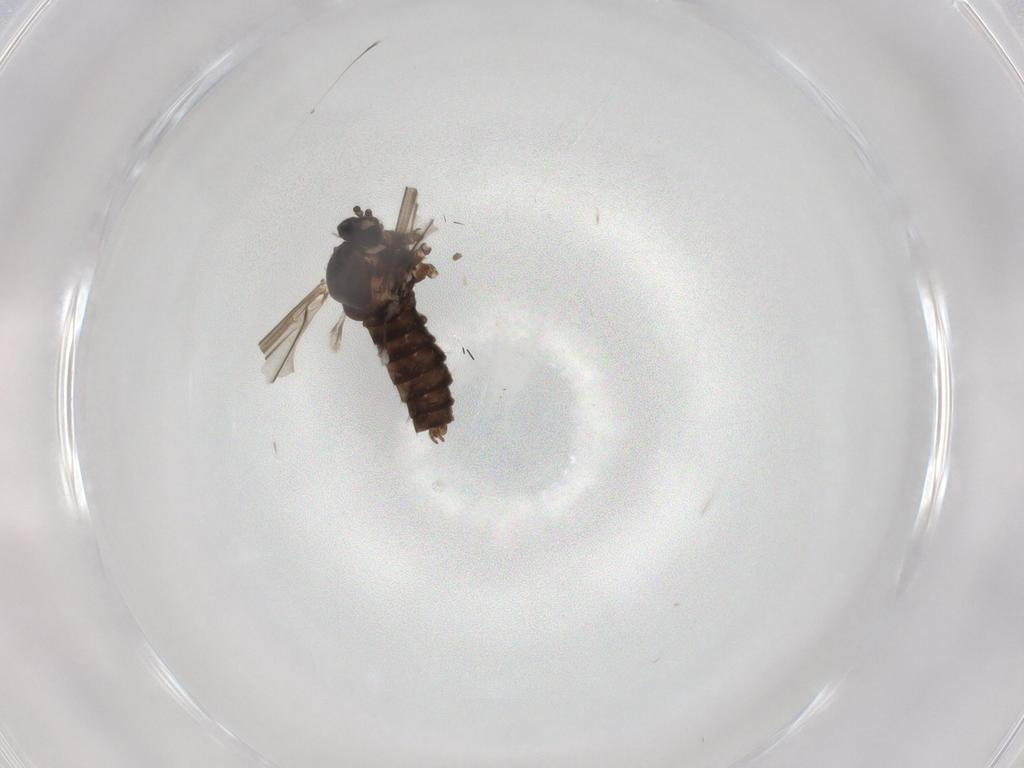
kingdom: Animalia
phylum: Arthropoda
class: Insecta
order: Diptera
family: Cecidomyiidae
